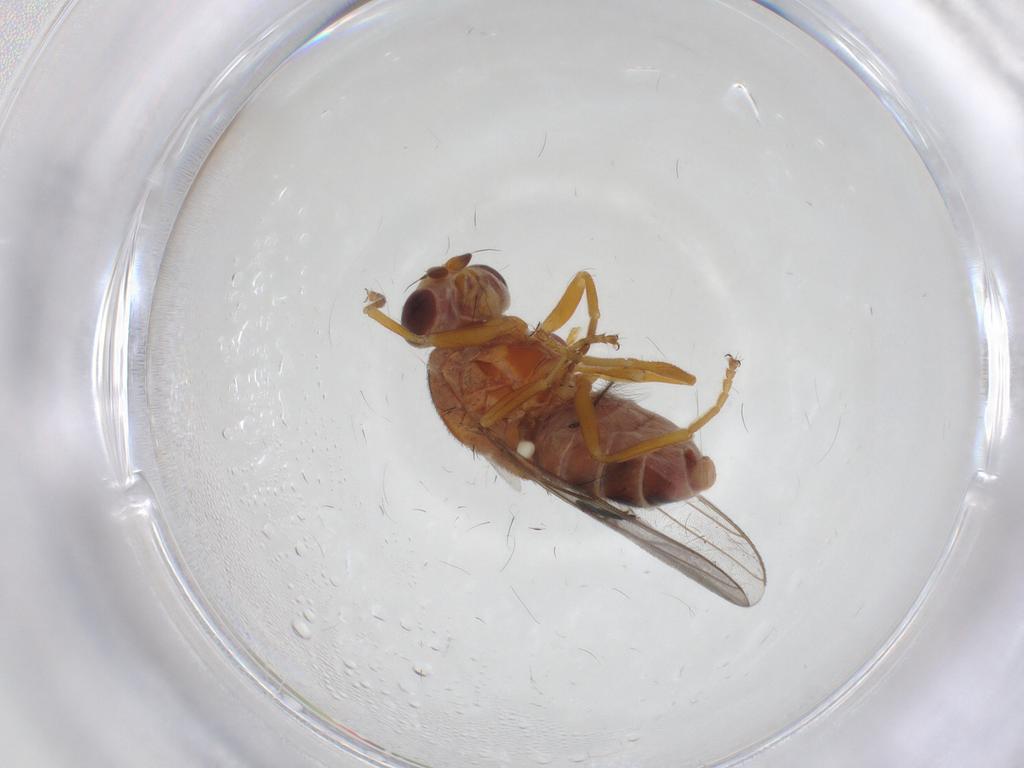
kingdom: Animalia
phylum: Arthropoda
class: Insecta
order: Diptera
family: Chloropidae
